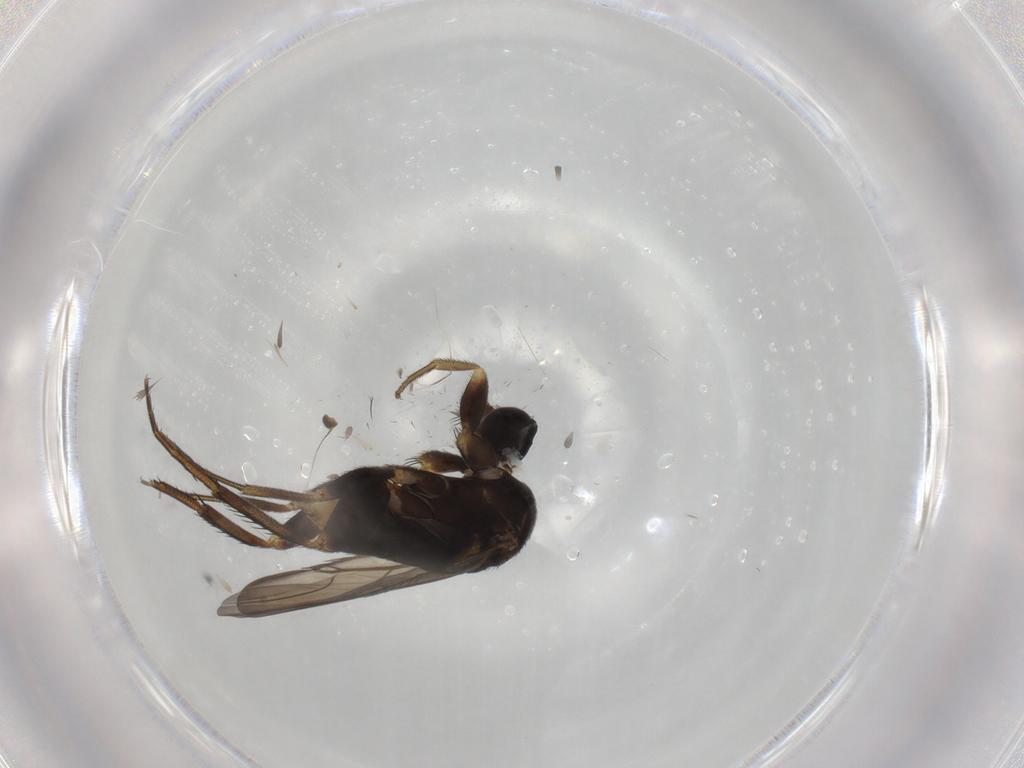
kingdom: Animalia
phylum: Arthropoda
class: Insecta
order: Diptera
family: Phoridae
